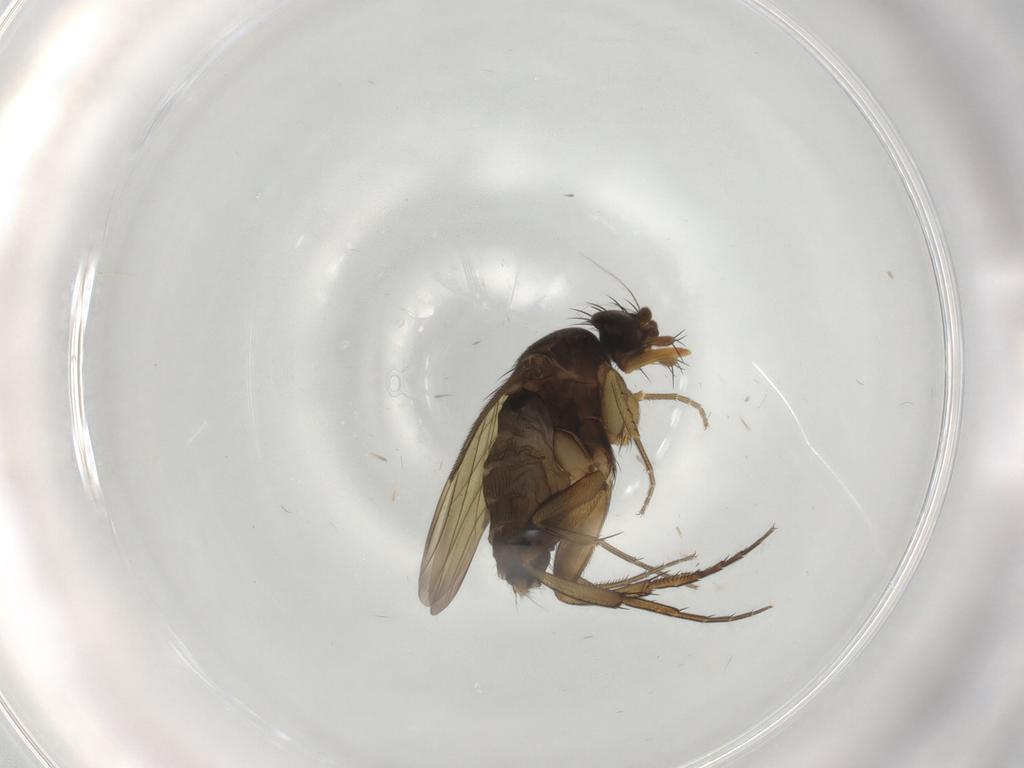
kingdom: Animalia
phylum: Arthropoda
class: Insecta
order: Diptera
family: Phoridae
